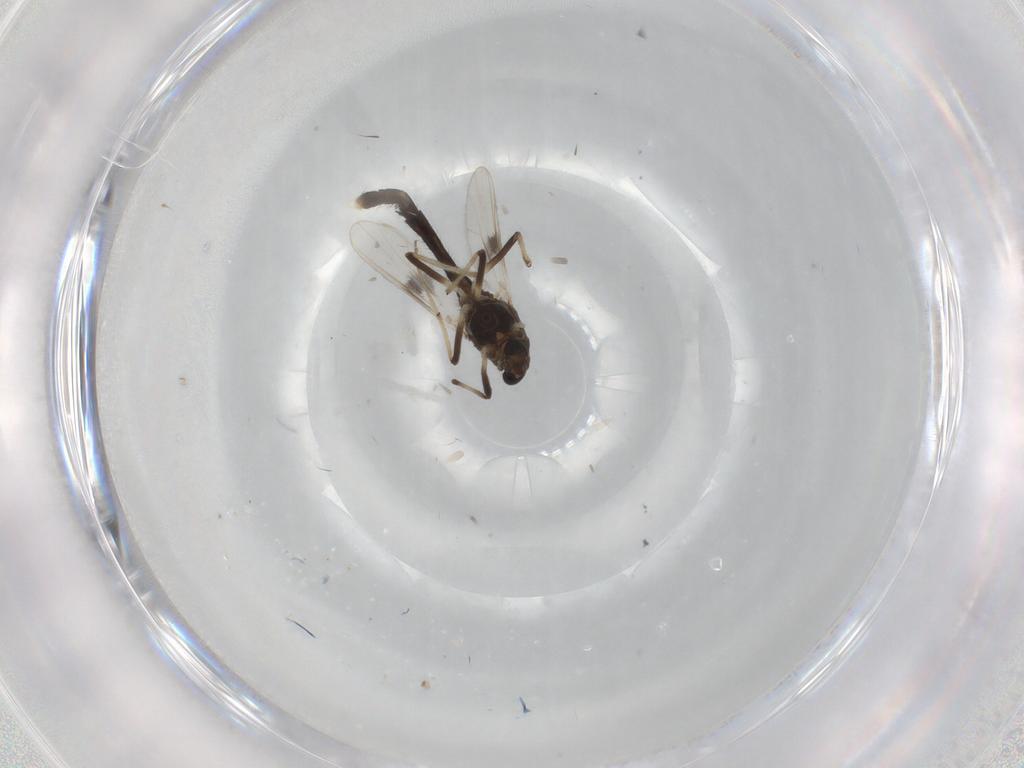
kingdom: Animalia
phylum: Arthropoda
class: Insecta
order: Diptera
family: Chironomidae
